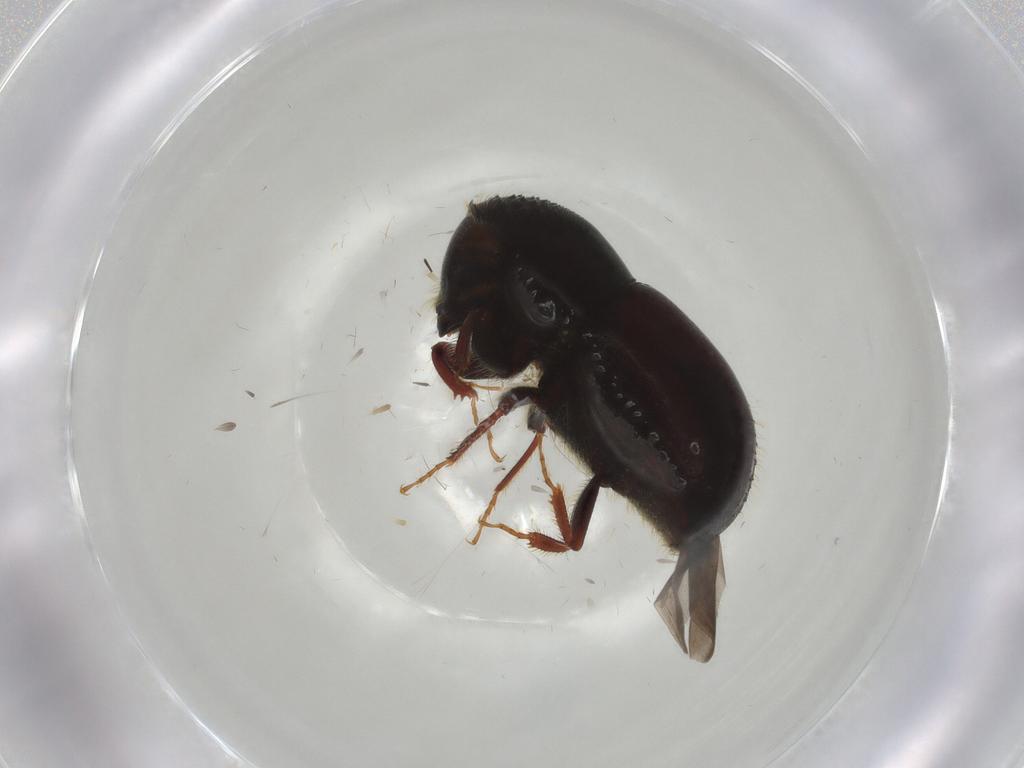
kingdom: Animalia
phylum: Arthropoda
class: Insecta
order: Coleoptera
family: Curculionidae
